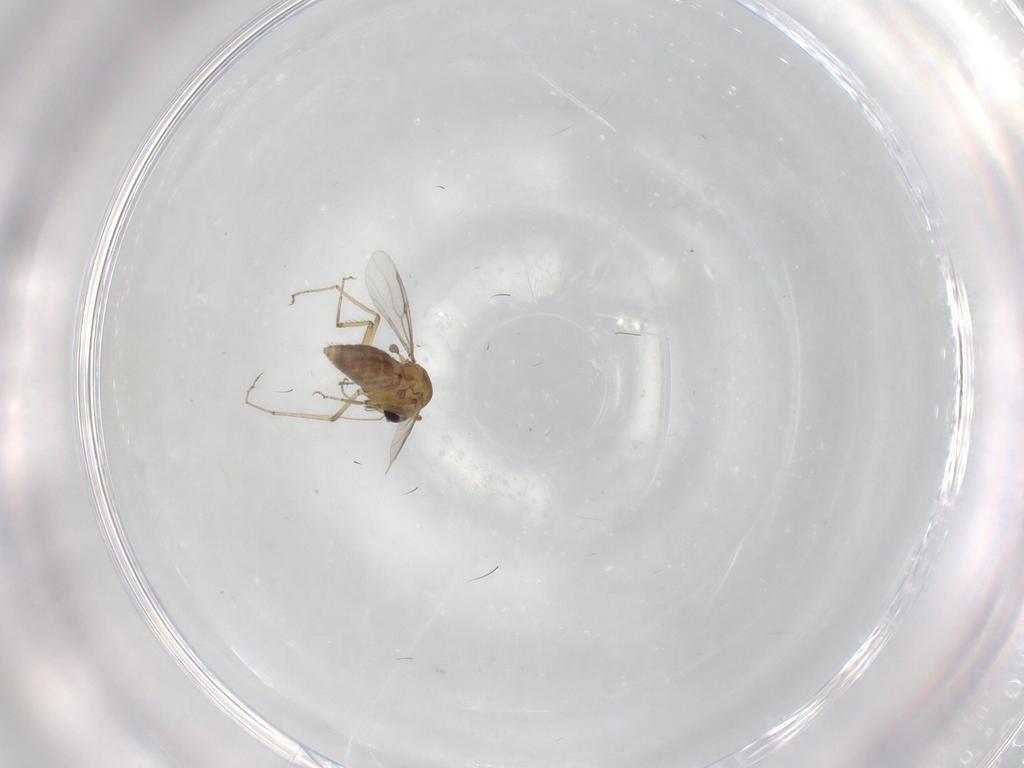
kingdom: Animalia
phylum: Arthropoda
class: Insecta
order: Diptera
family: Ceratopogonidae
